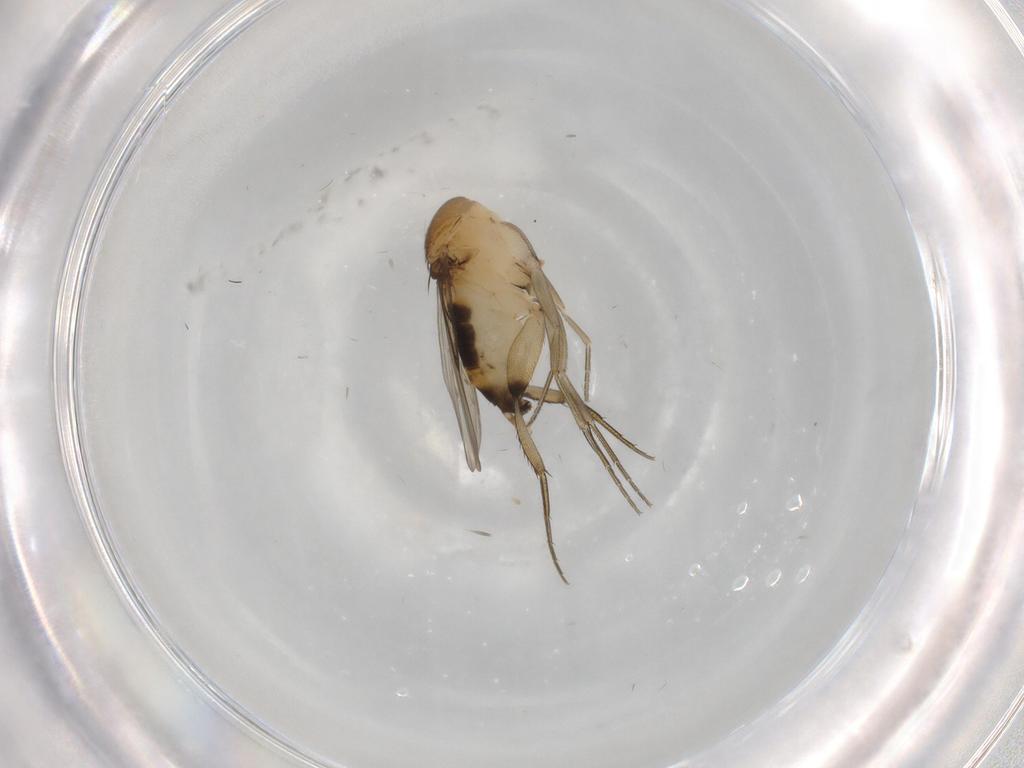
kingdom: Animalia
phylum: Arthropoda
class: Insecta
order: Diptera
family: Phoridae
